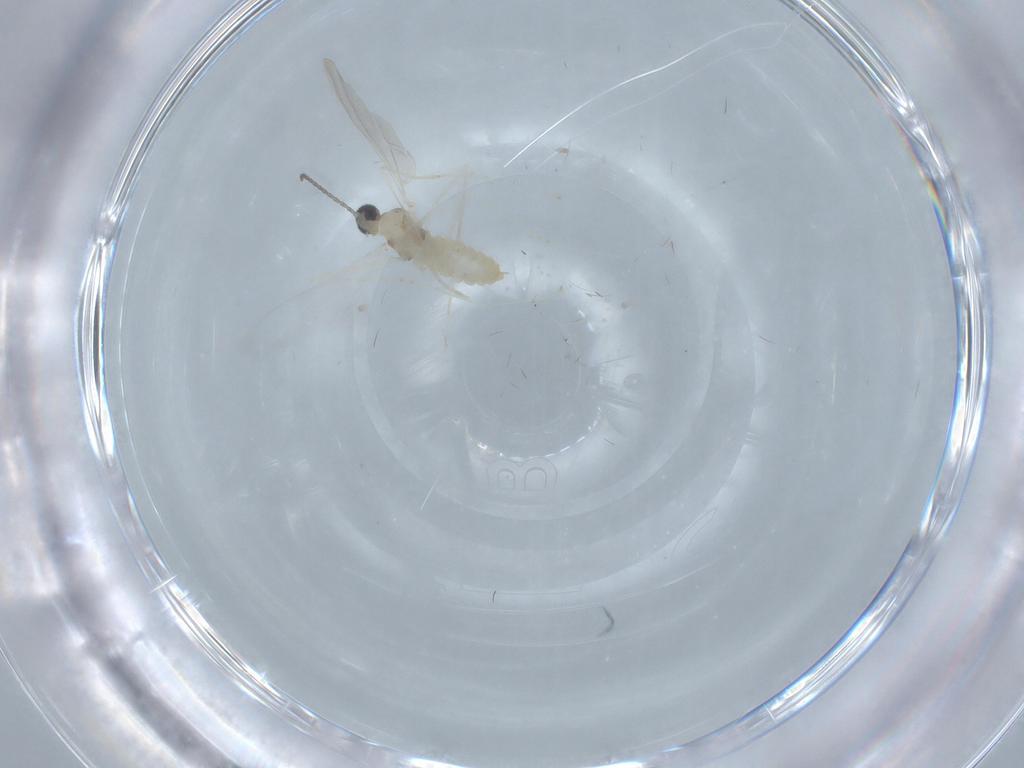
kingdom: Animalia
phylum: Arthropoda
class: Insecta
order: Diptera
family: Cecidomyiidae
